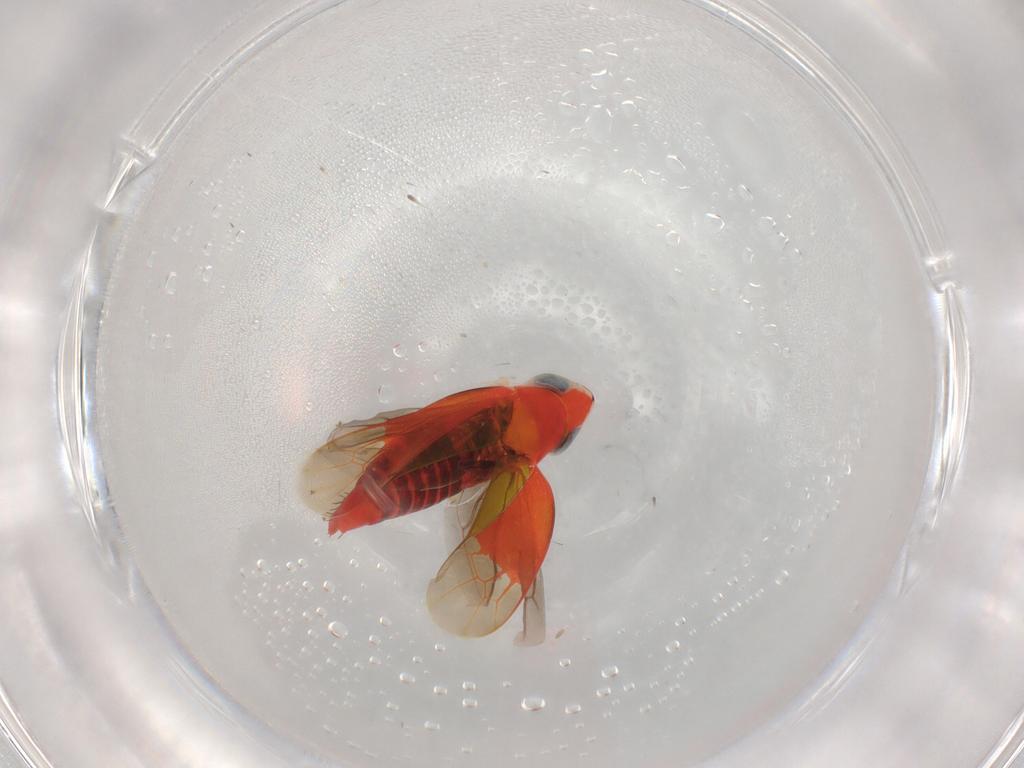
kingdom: Animalia
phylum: Arthropoda
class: Insecta
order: Hemiptera
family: Cicadellidae
